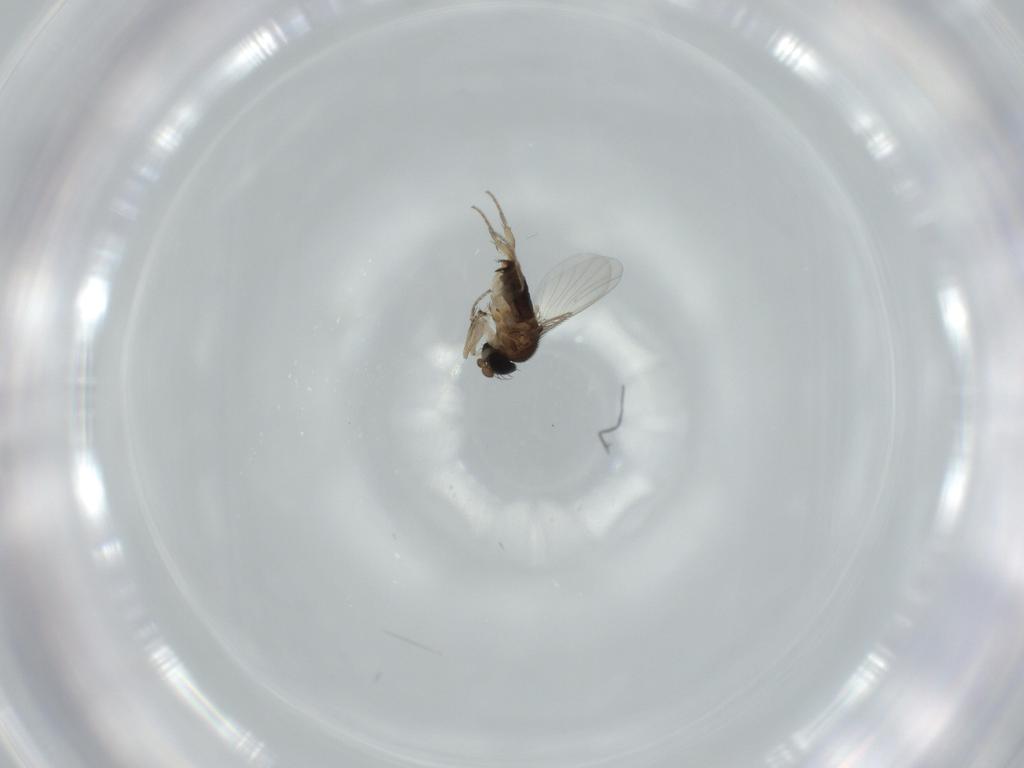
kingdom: Animalia
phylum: Arthropoda
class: Insecta
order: Diptera
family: Phoridae
